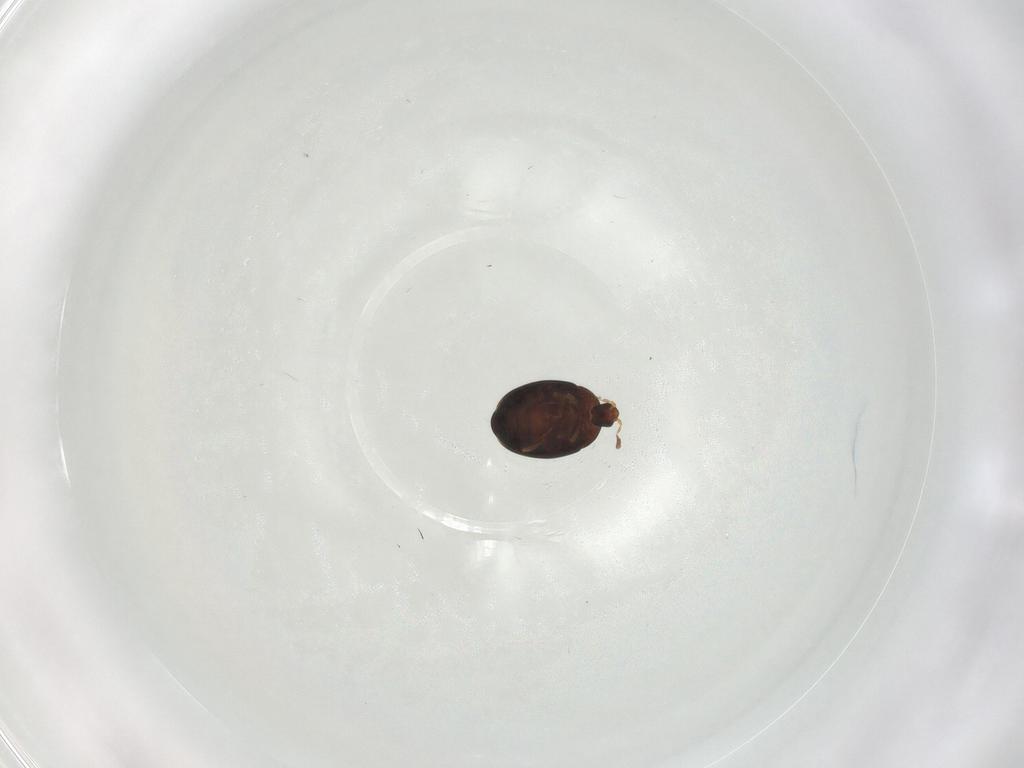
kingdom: Animalia
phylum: Arthropoda
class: Insecta
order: Coleoptera
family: Corylophidae
